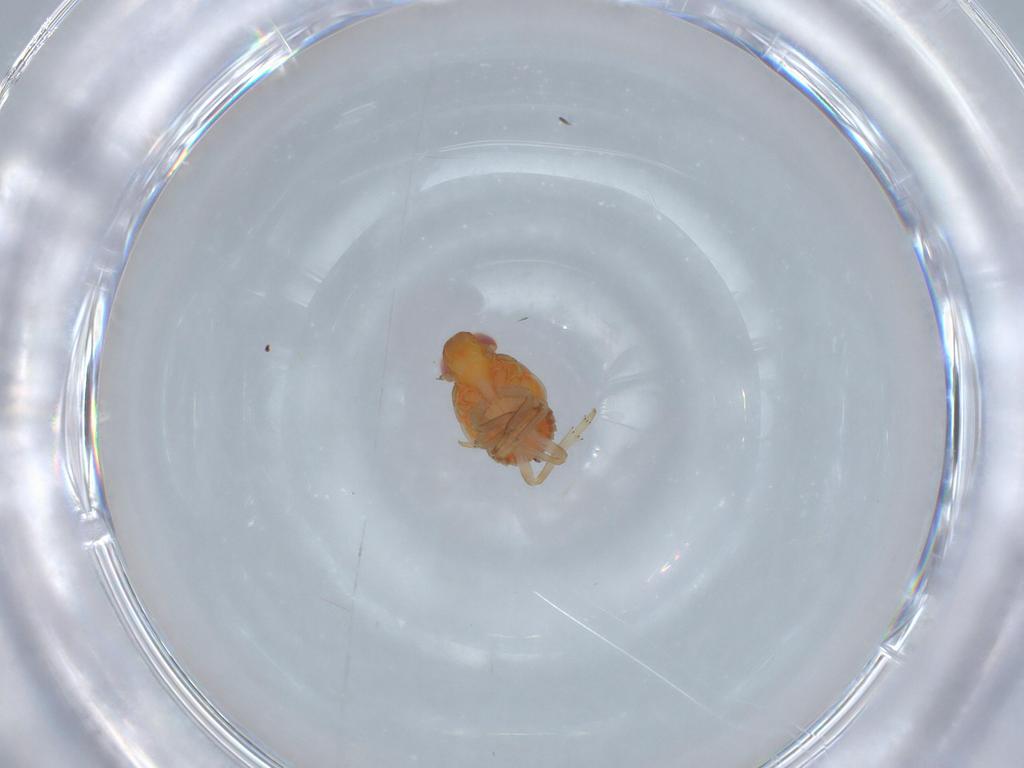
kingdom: Animalia
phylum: Arthropoda
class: Insecta
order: Hemiptera
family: Fulgoroidea_incertae_sedis
